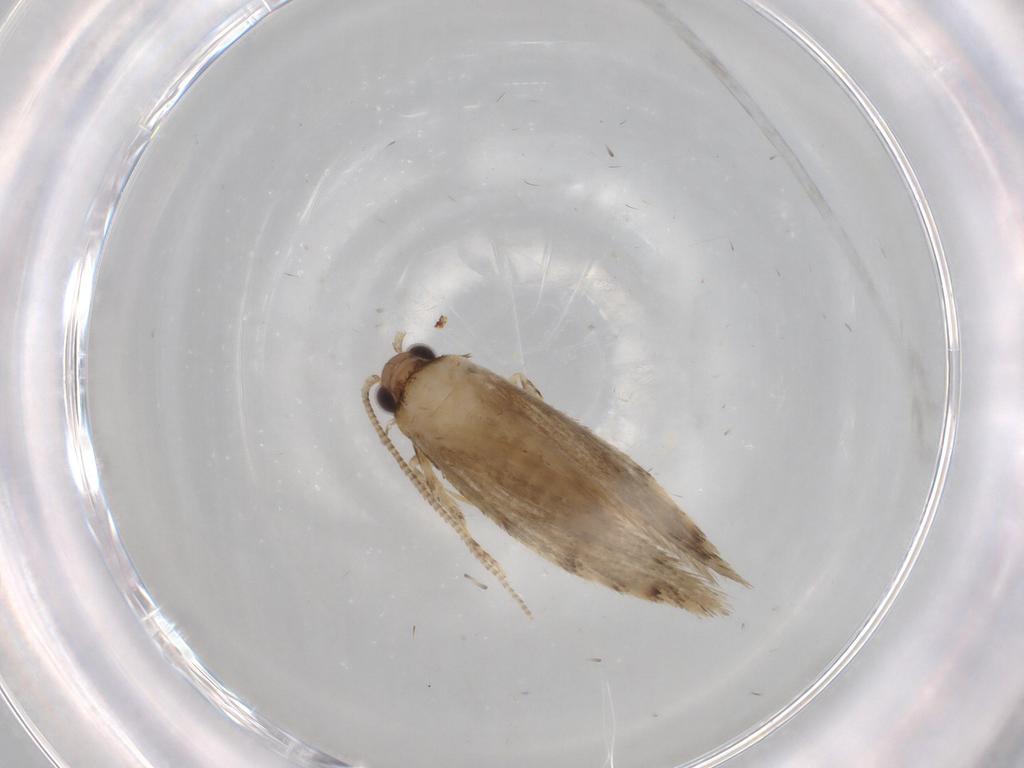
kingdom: Animalia
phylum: Arthropoda
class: Insecta
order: Lepidoptera
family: Tineidae
